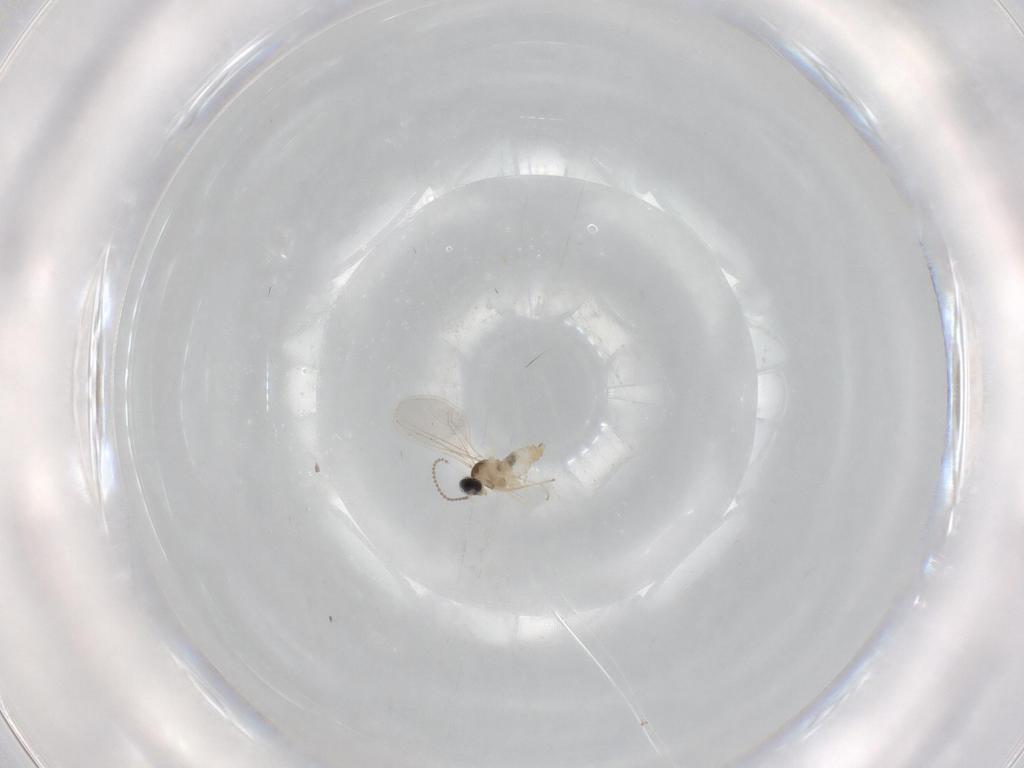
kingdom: Animalia
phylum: Arthropoda
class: Insecta
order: Diptera
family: Cecidomyiidae
